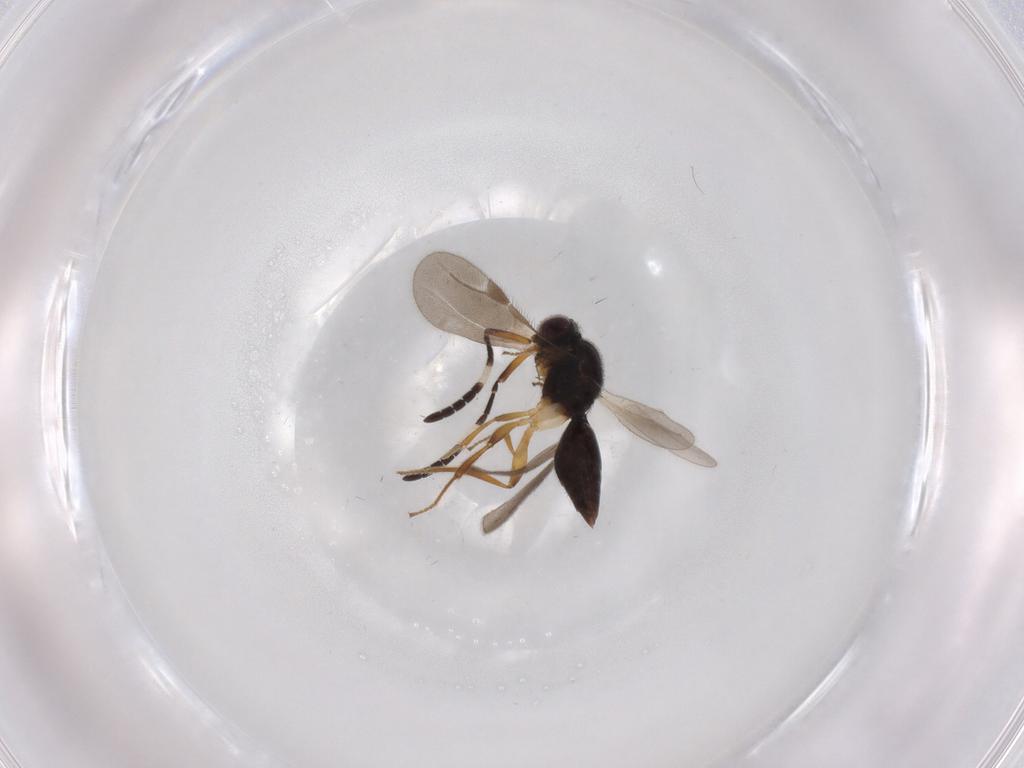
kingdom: Animalia
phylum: Arthropoda
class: Insecta
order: Hymenoptera
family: Megaspilidae
